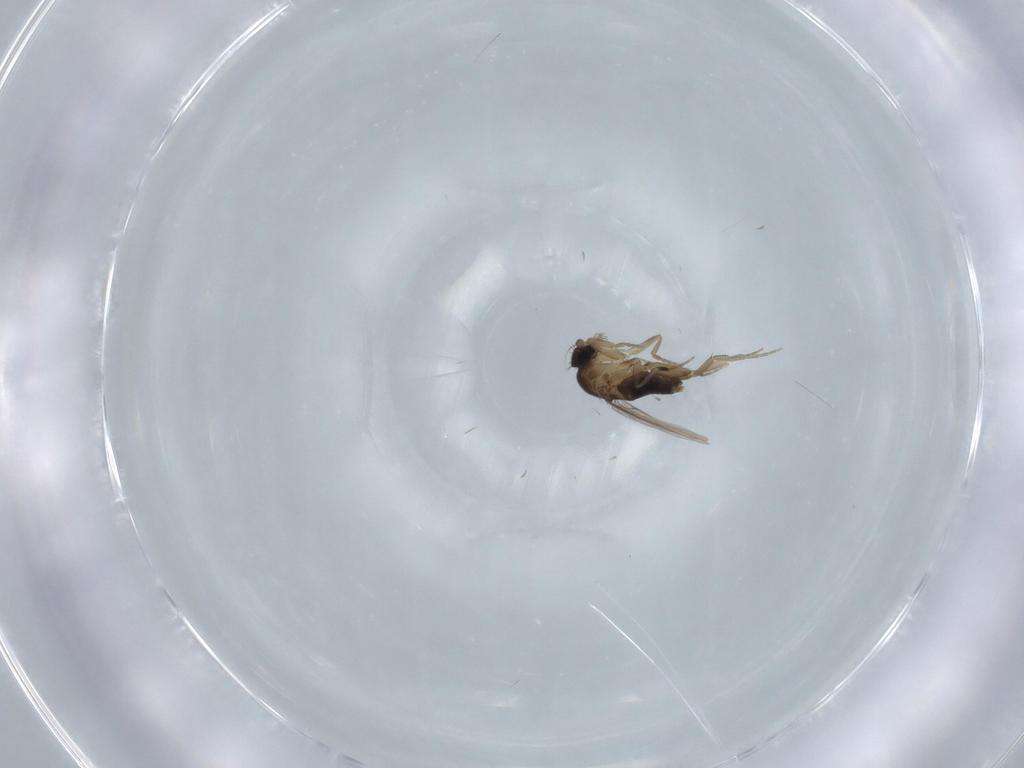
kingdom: Animalia
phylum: Arthropoda
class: Insecta
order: Diptera
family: Phoridae
